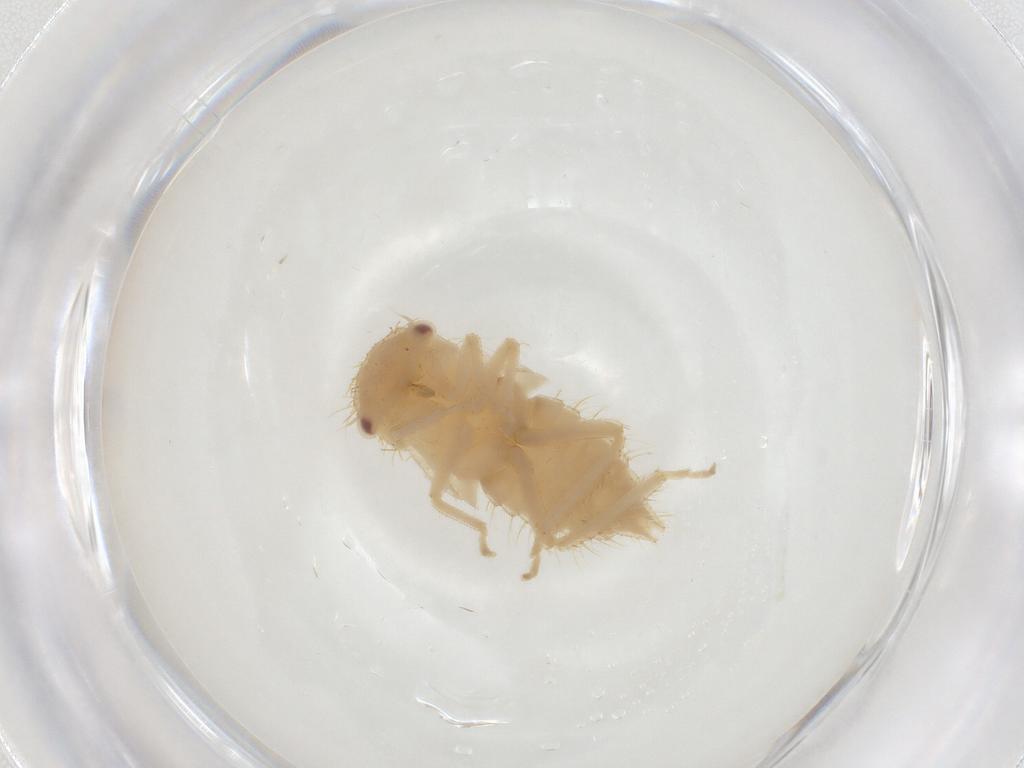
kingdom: Animalia
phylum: Arthropoda
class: Insecta
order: Hemiptera
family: Cicadellidae
